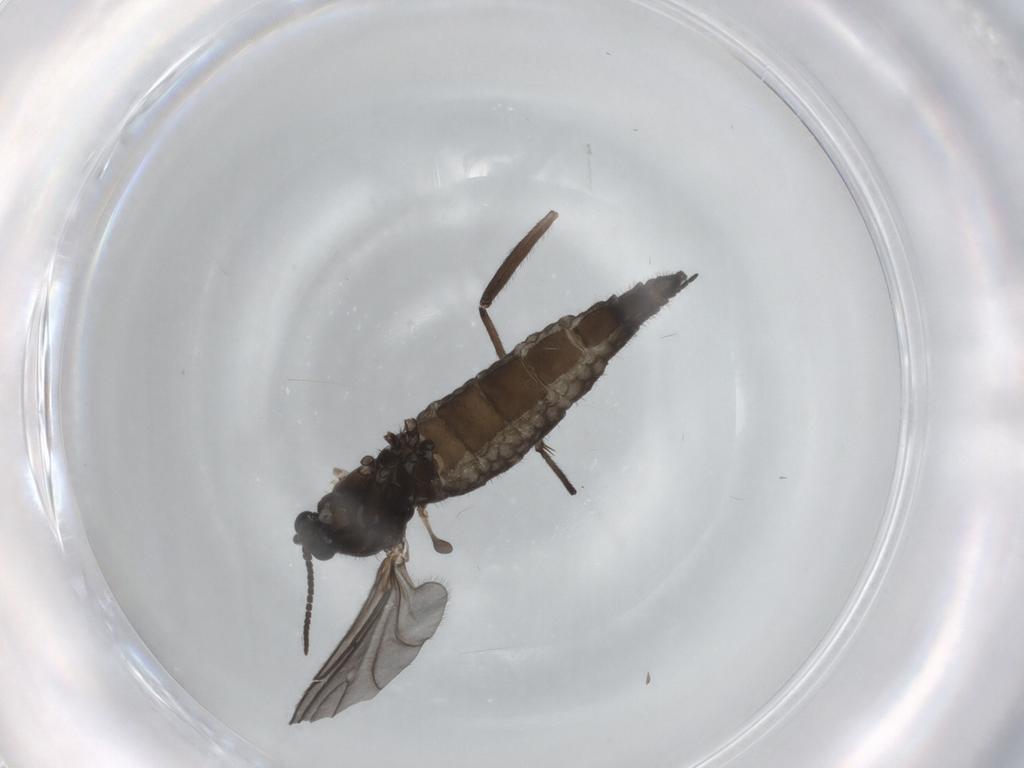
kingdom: Animalia
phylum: Arthropoda
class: Insecta
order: Diptera
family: Sciaridae
